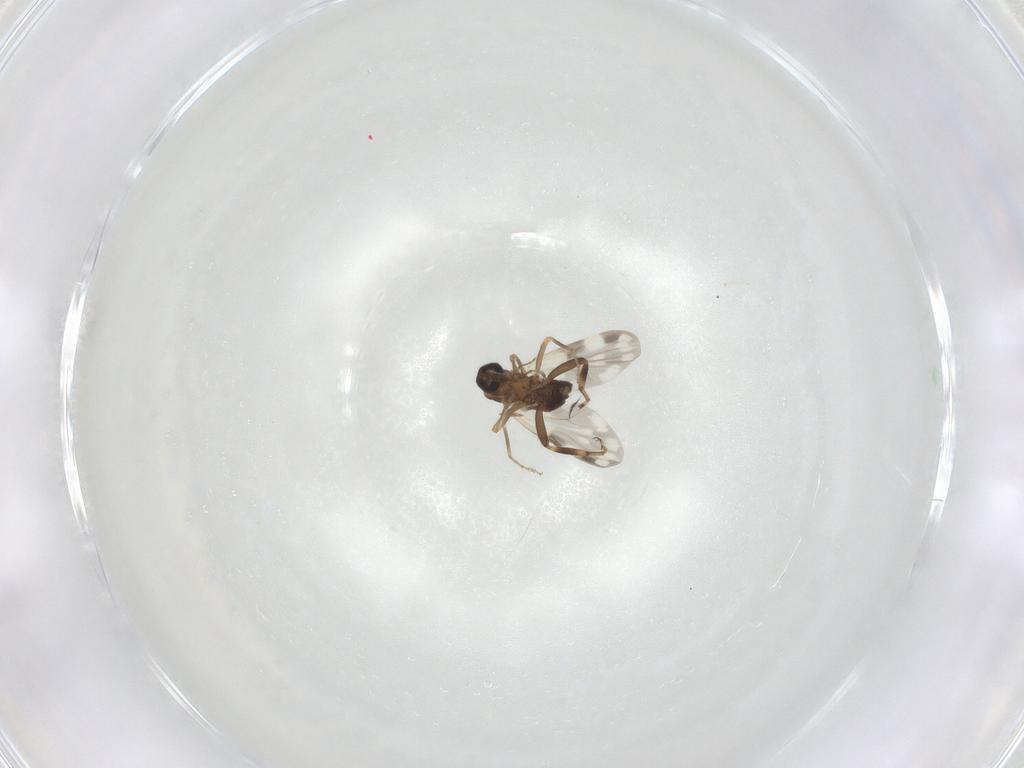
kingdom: Animalia
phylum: Arthropoda
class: Insecta
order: Diptera
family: Ceratopogonidae
